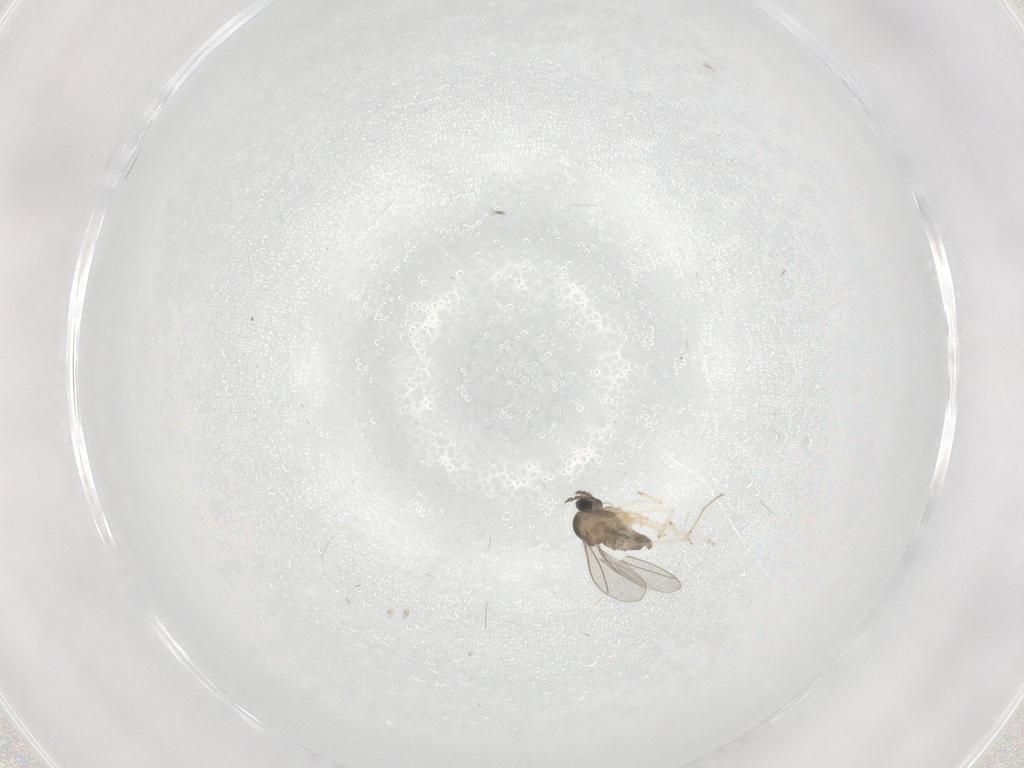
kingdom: Animalia
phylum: Arthropoda
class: Insecta
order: Diptera
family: Cecidomyiidae
